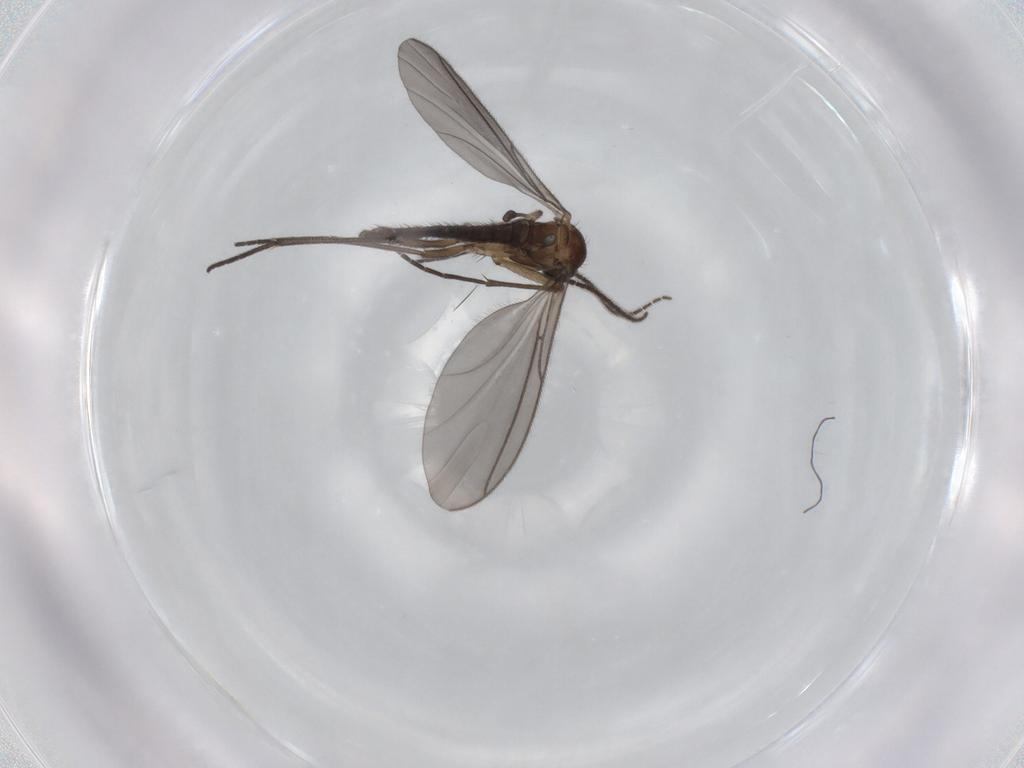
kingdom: Animalia
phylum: Arthropoda
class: Insecta
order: Diptera
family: Sciaridae
